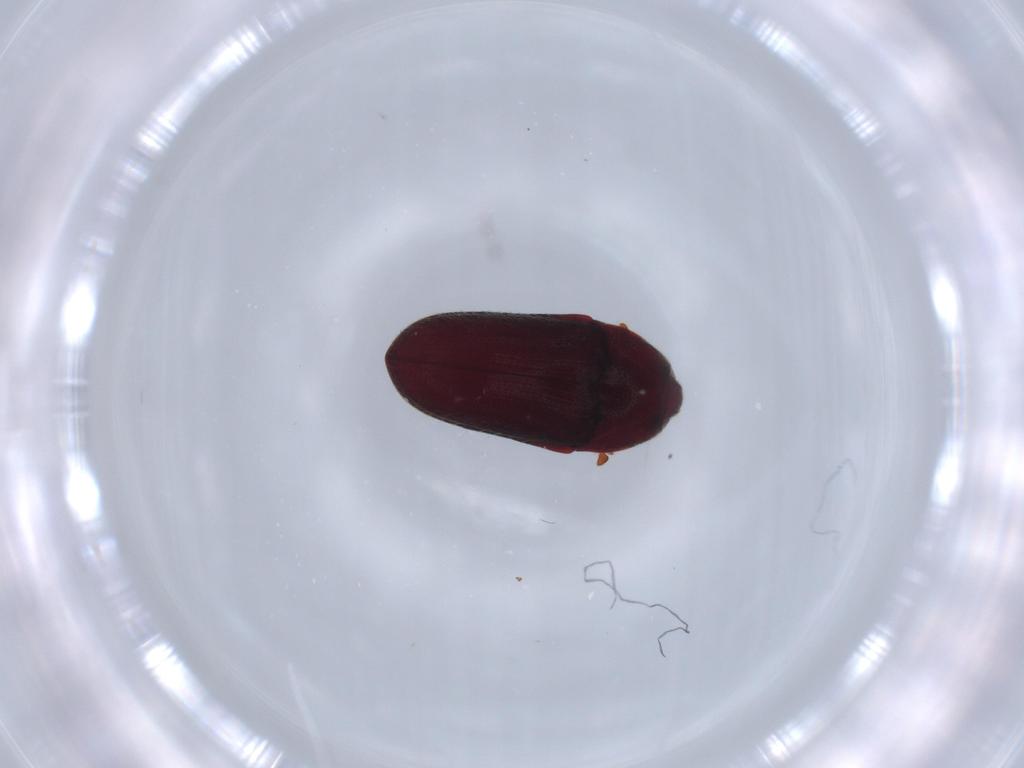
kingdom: Animalia
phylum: Arthropoda
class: Insecta
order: Coleoptera
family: Throscidae
